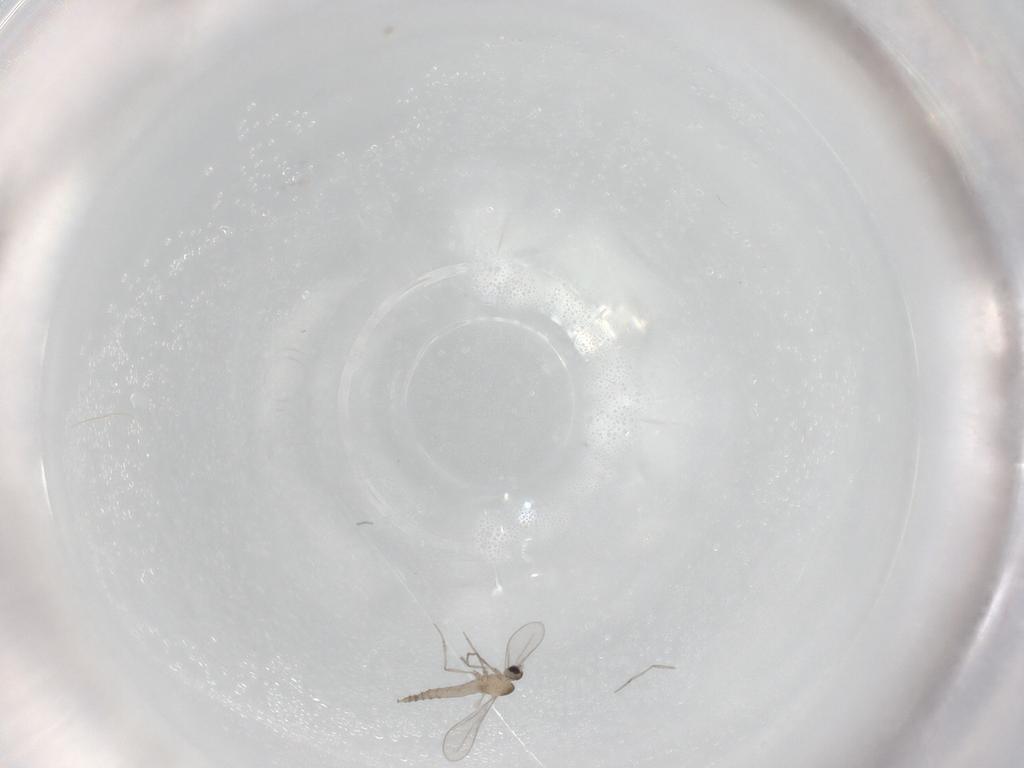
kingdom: Animalia
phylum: Arthropoda
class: Insecta
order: Diptera
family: Cecidomyiidae
